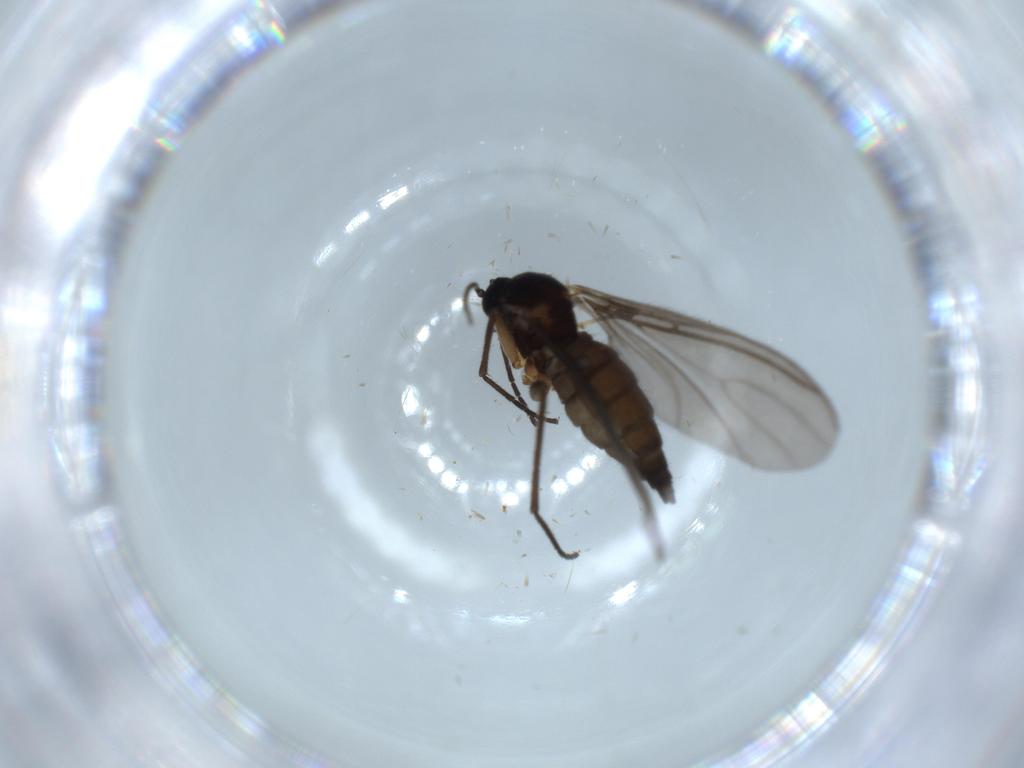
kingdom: Animalia
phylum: Arthropoda
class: Insecta
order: Diptera
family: Sciaridae
